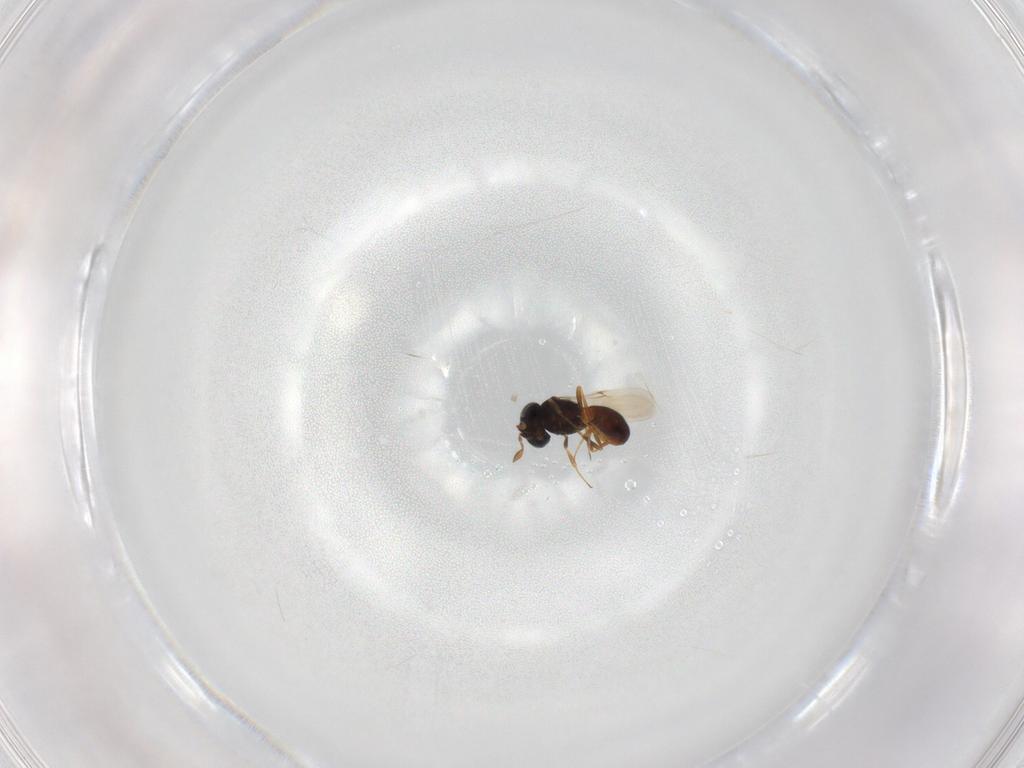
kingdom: Animalia
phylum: Arthropoda
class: Insecta
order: Hymenoptera
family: Scelionidae
